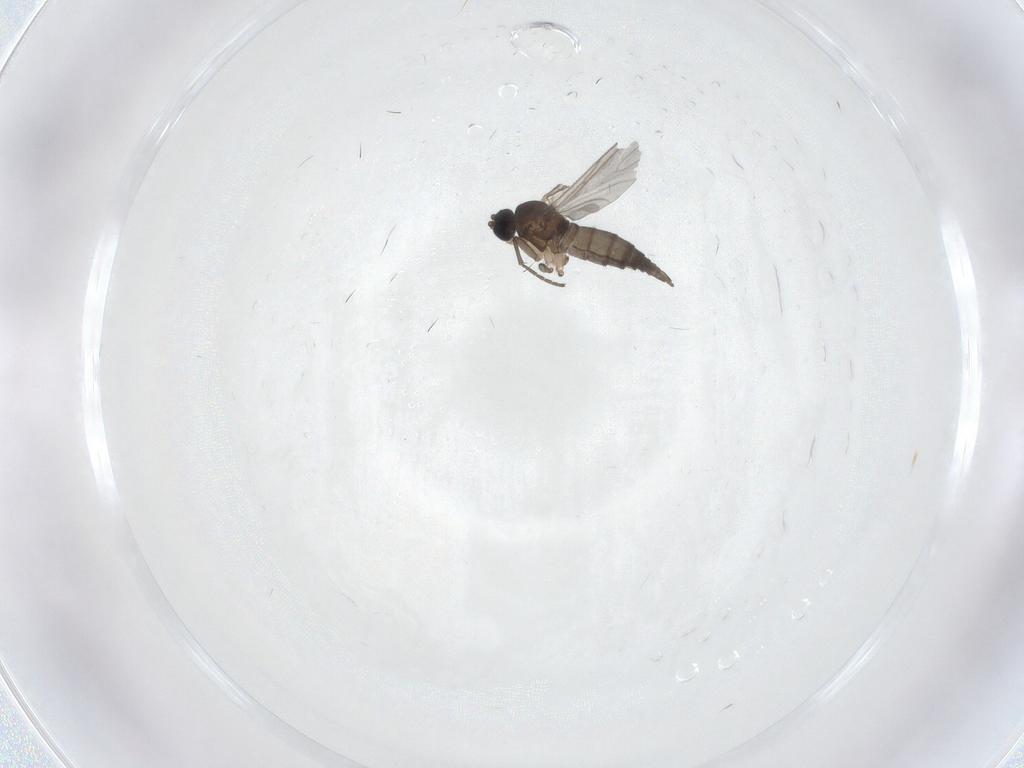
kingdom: Animalia
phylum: Arthropoda
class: Insecta
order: Diptera
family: Sciaridae
